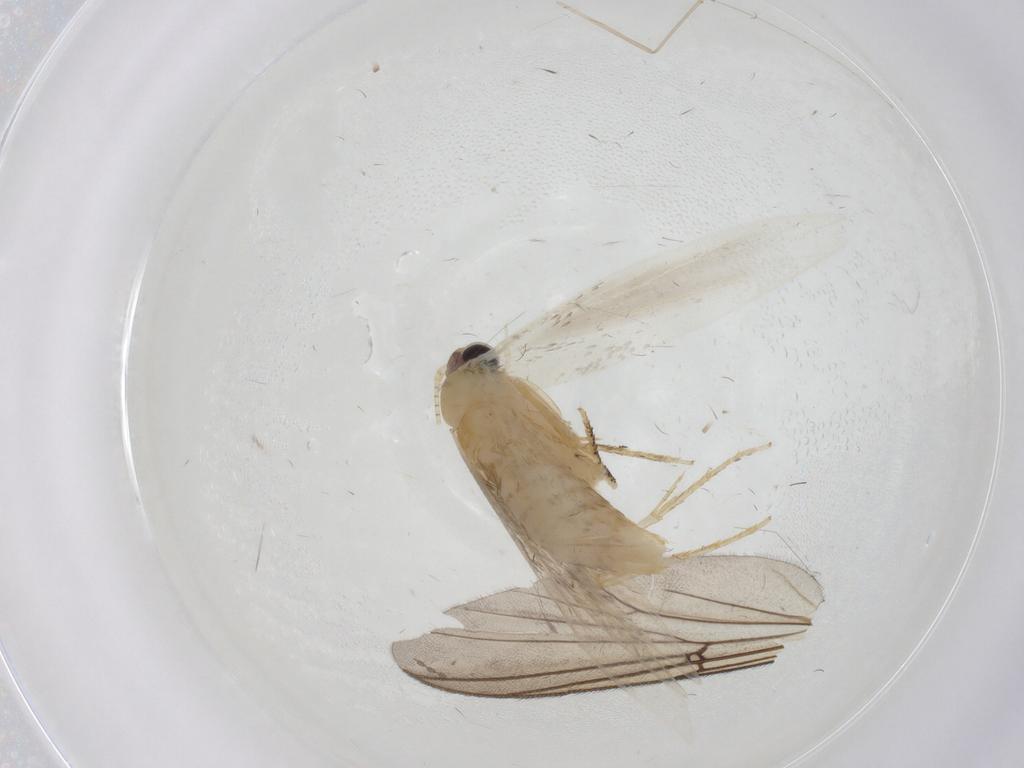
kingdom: Animalia
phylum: Arthropoda
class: Insecta
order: Lepidoptera
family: Tineidae
